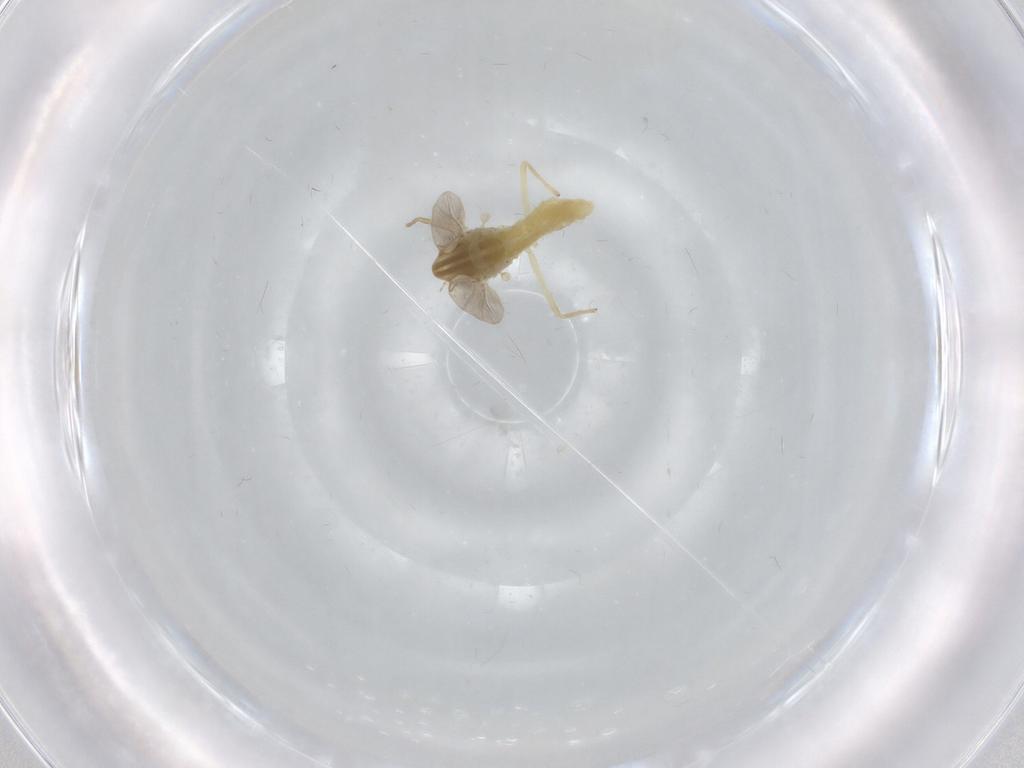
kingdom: Animalia
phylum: Arthropoda
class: Insecta
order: Diptera
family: Chironomidae
